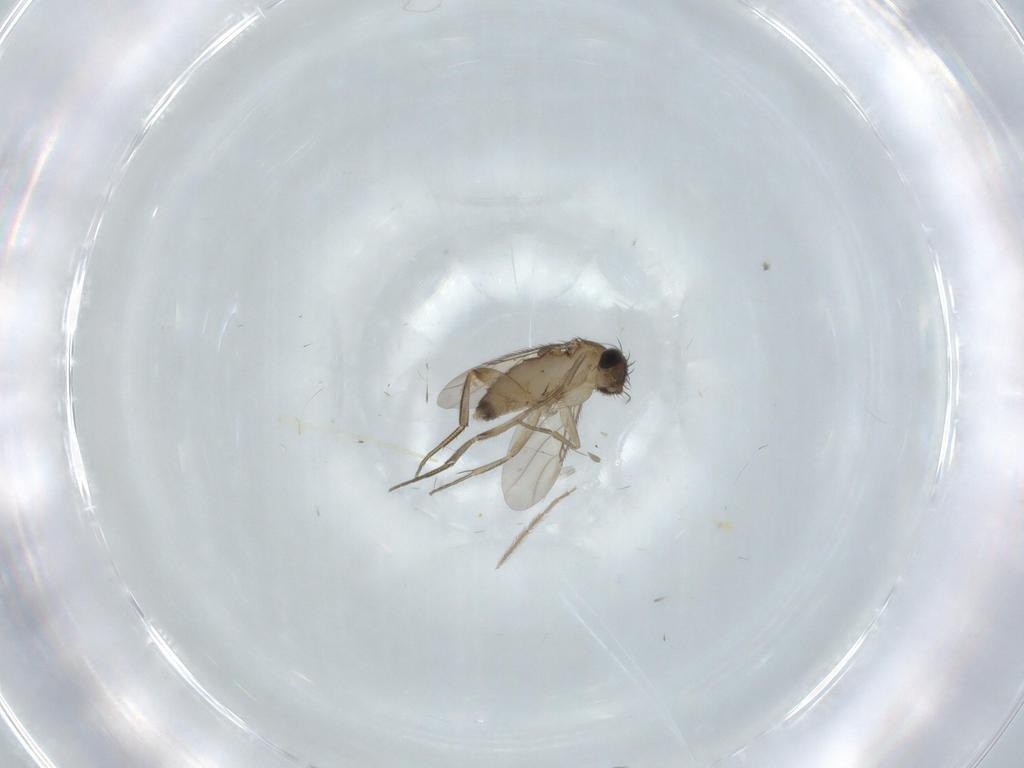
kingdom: Animalia
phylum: Arthropoda
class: Insecta
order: Diptera
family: Phoridae
